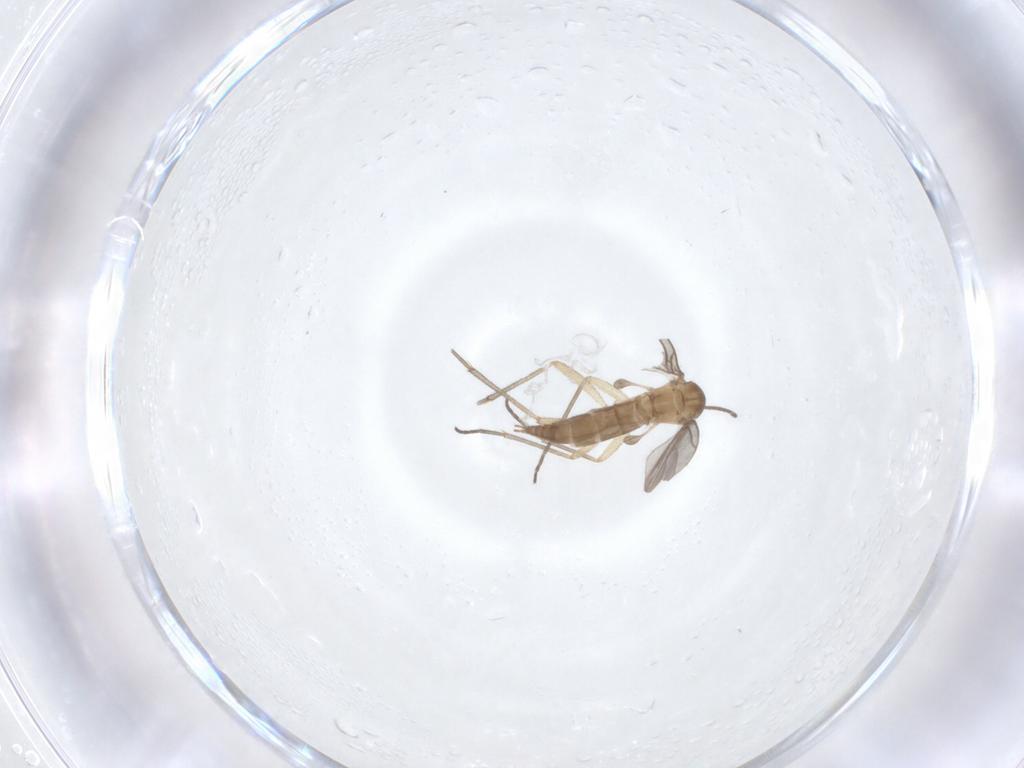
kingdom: Animalia
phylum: Arthropoda
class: Insecta
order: Diptera
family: Sciaridae
